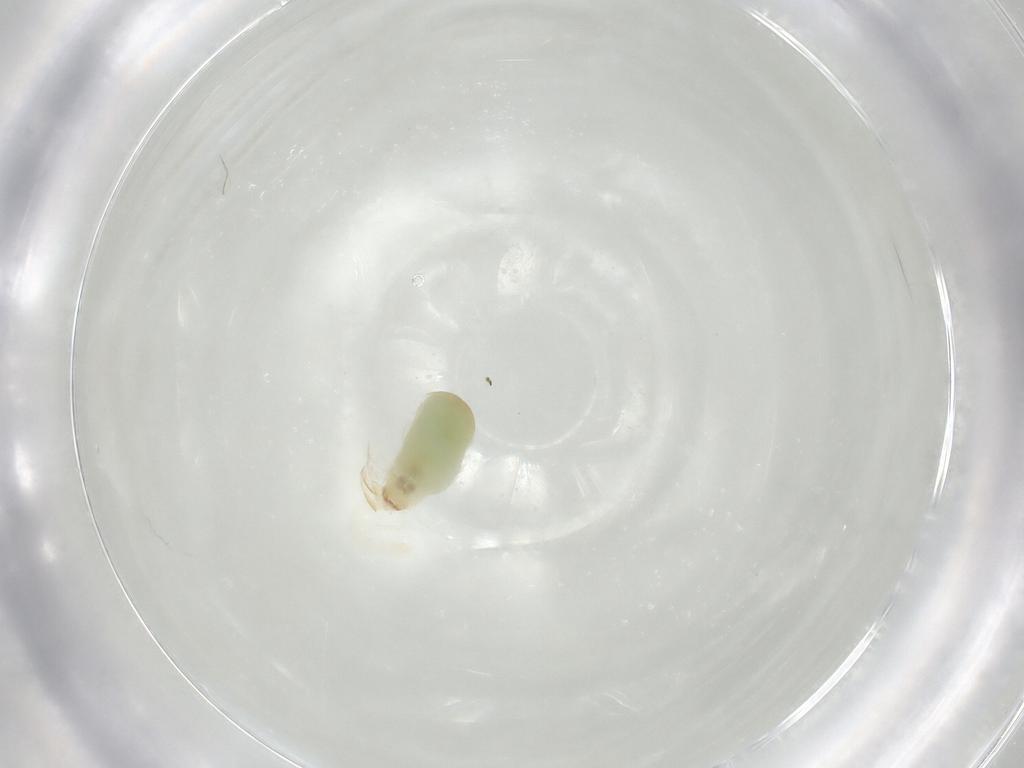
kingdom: Animalia
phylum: Arthropoda
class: Insecta
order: Hymenoptera
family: Dryinidae
